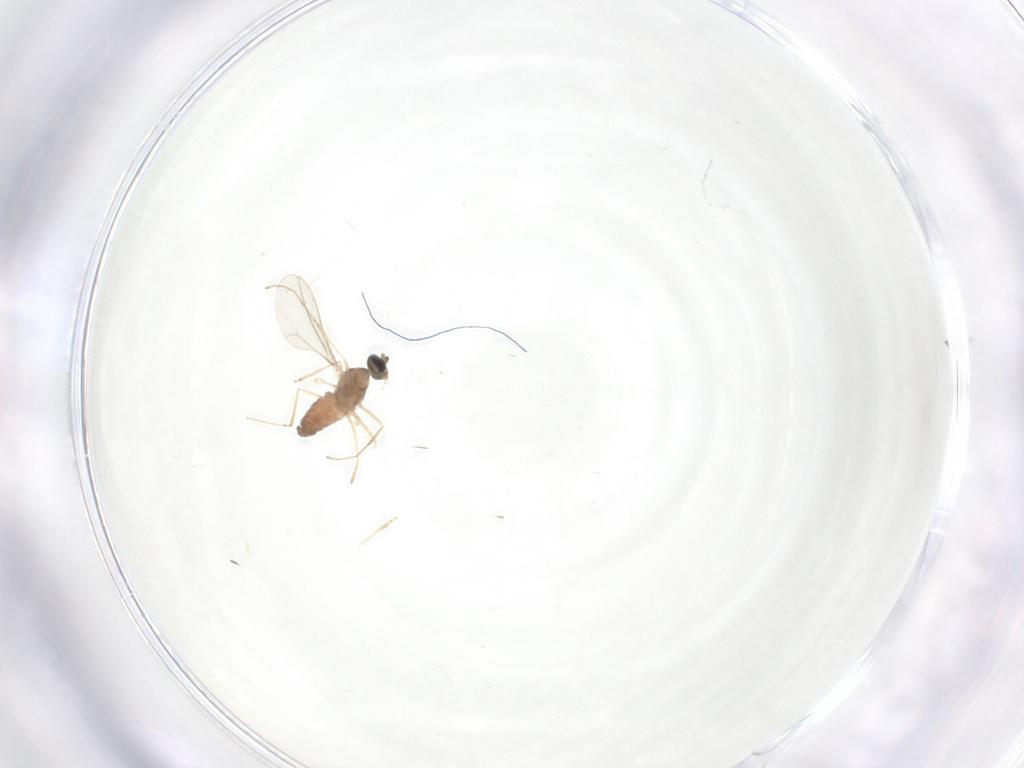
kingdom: Animalia
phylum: Arthropoda
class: Insecta
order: Diptera
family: Cecidomyiidae
